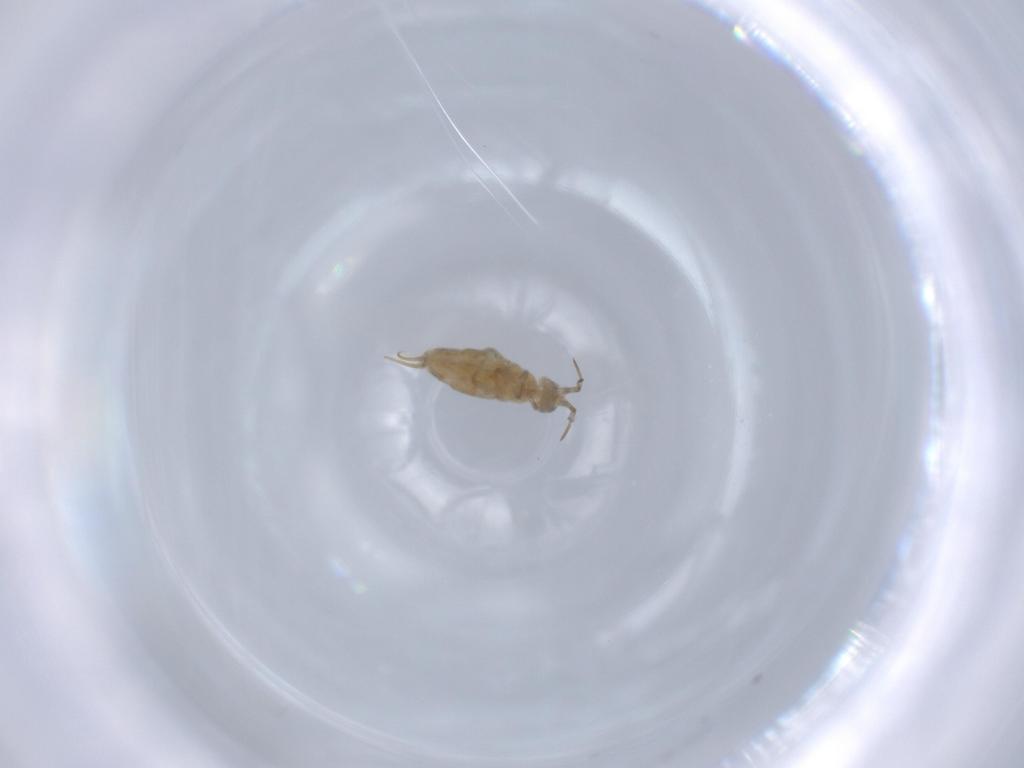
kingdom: Animalia
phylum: Arthropoda
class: Collembola
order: Entomobryomorpha
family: Isotomidae
